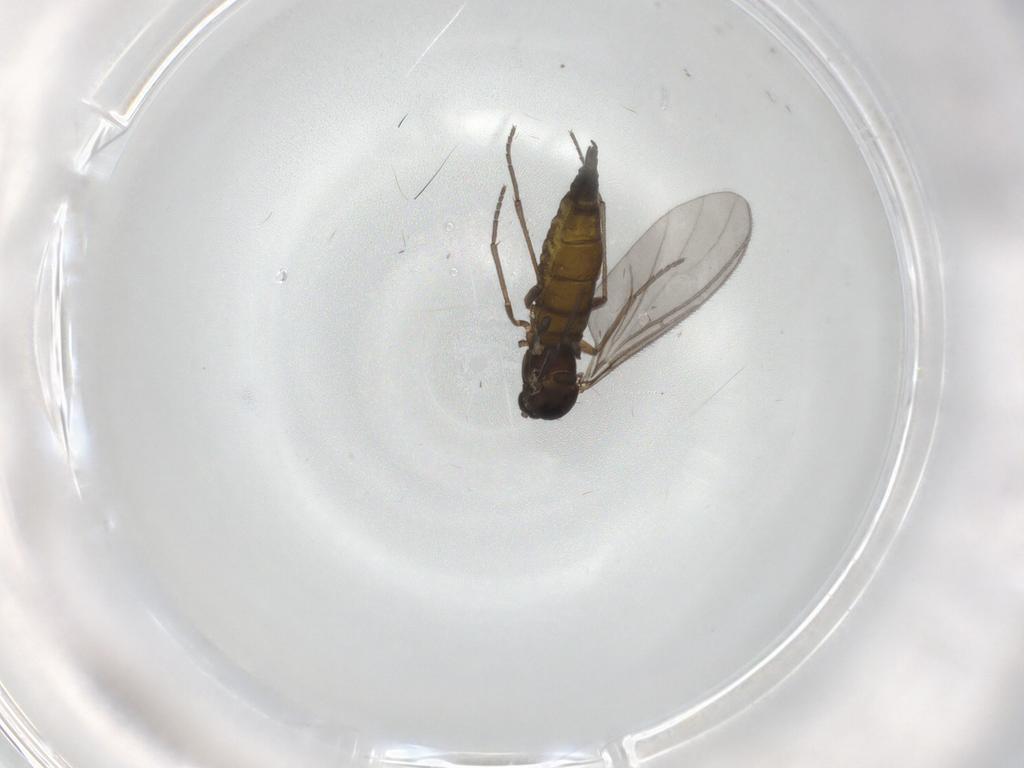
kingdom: Animalia
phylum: Arthropoda
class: Insecta
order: Diptera
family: Sciaridae
